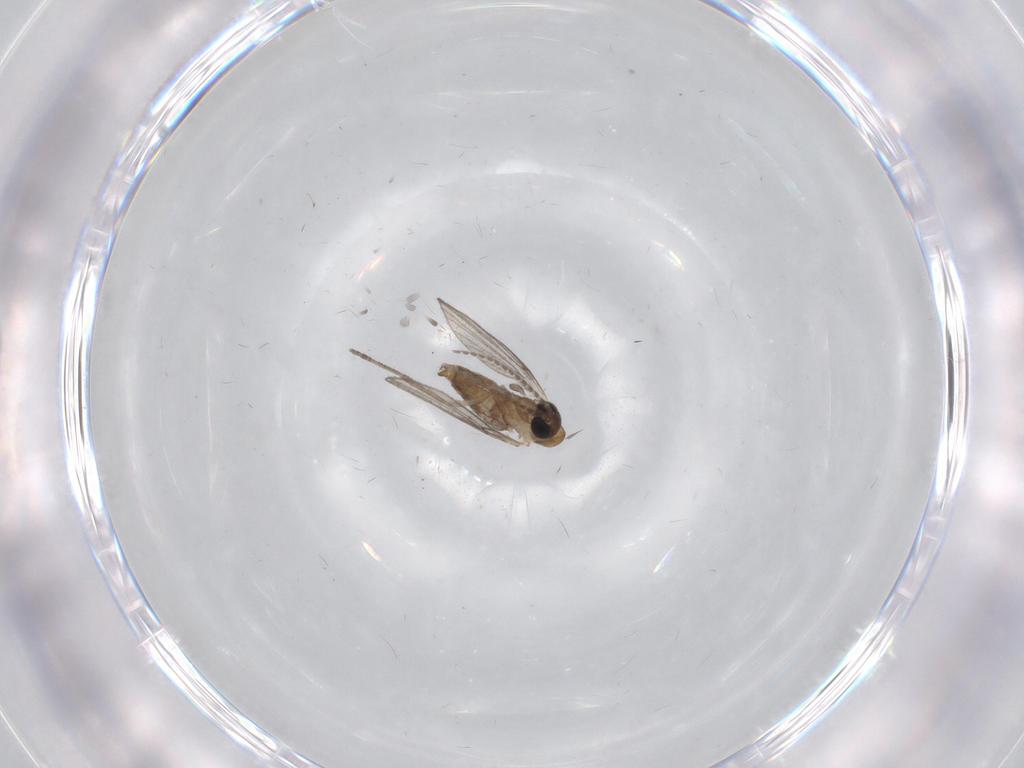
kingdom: Animalia
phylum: Arthropoda
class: Insecta
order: Diptera
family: Psychodidae
